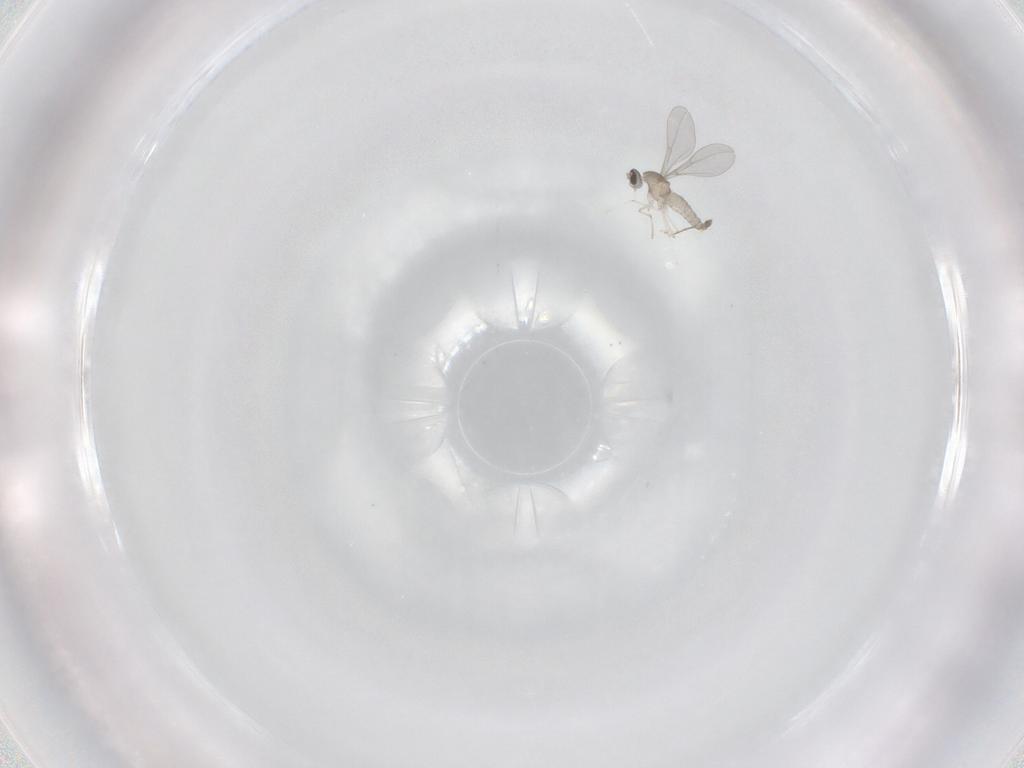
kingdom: Animalia
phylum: Arthropoda
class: Insecta
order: Diptera
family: Cecidomyiidae
